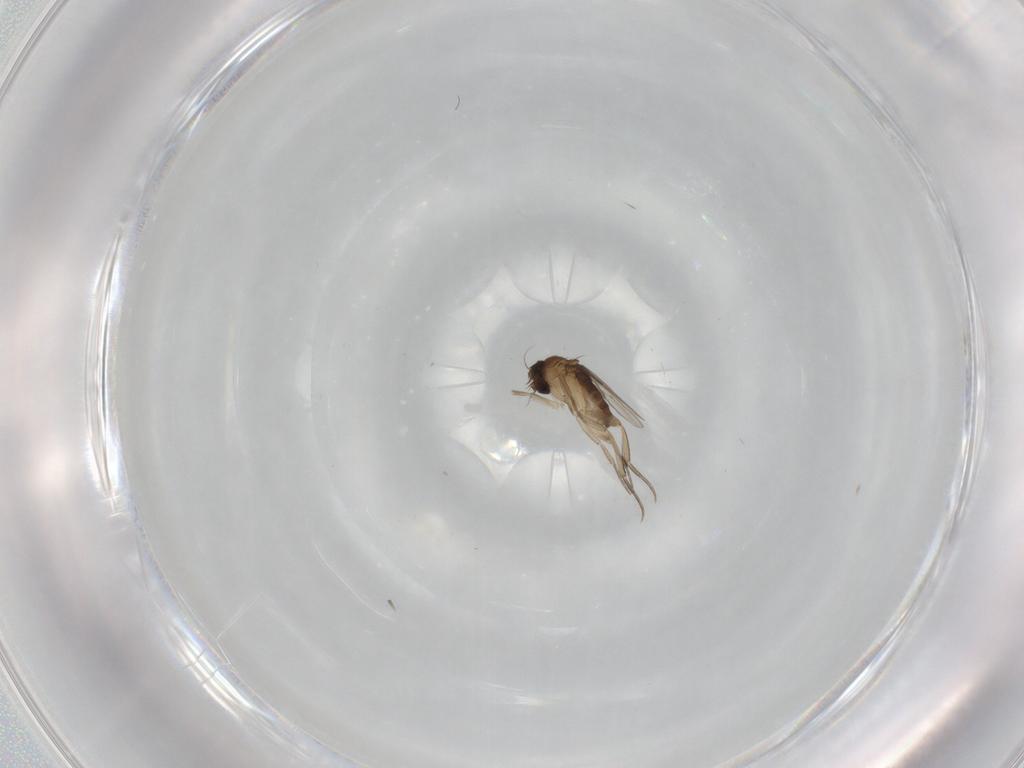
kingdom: Animalia
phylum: Arthropoda
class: Insecta
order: Diptera
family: Phoridae
